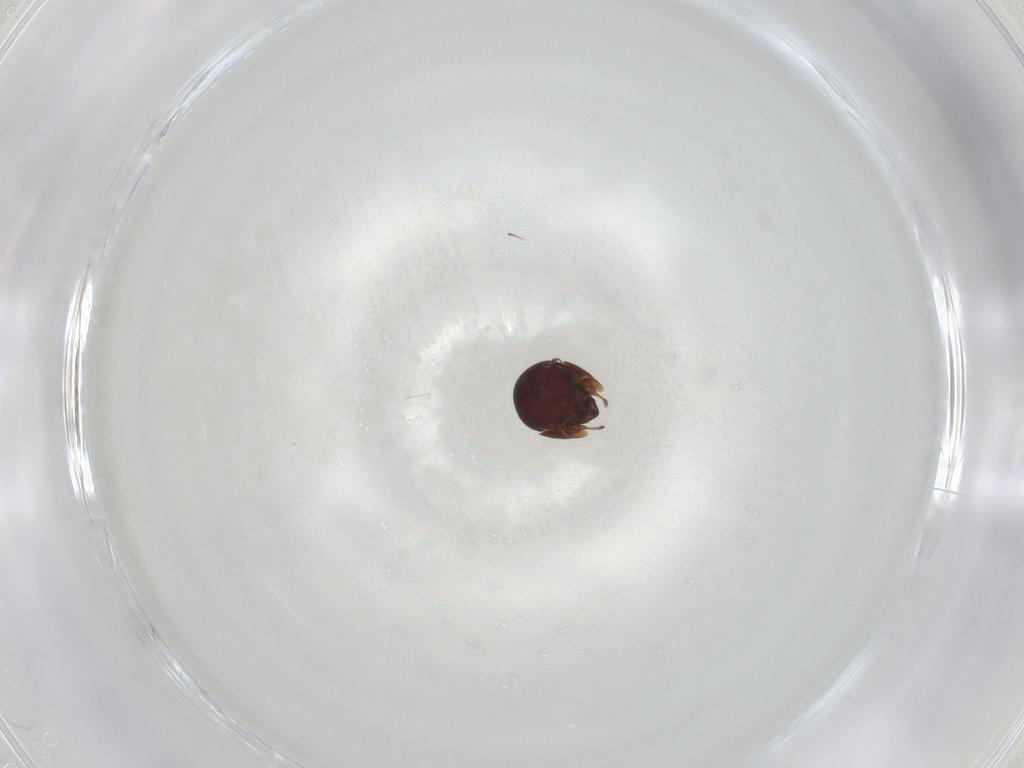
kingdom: Animalia
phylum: Arthropoda
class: Arachnida
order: Sarcoptiformes
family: Galumnidae
